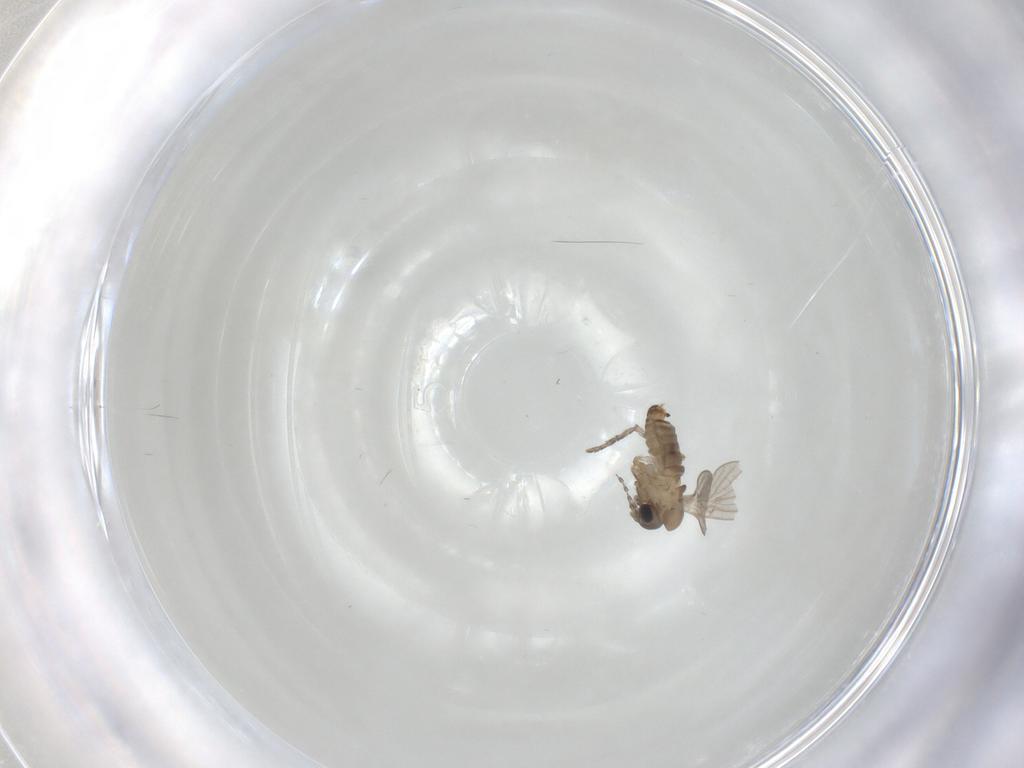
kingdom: Animalia
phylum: Arthropoda
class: Insecta
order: Diptera
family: Psychodidae
